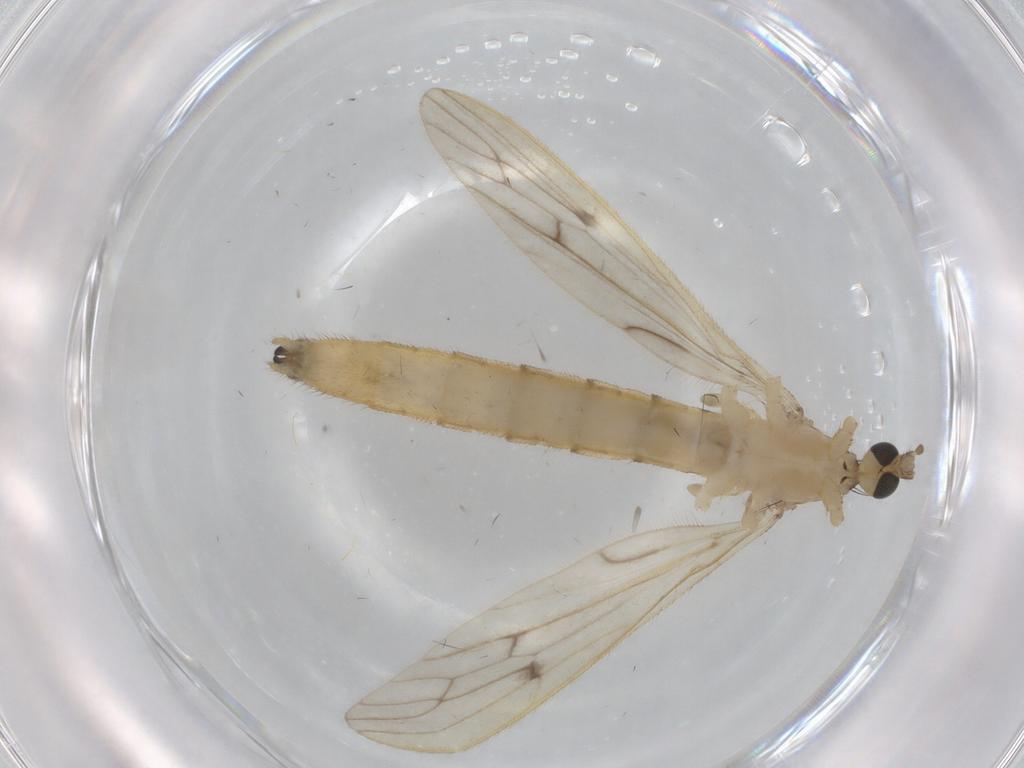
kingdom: Animalia
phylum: Arthropoda
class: Insecta
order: Diptera
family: Limoniidae
